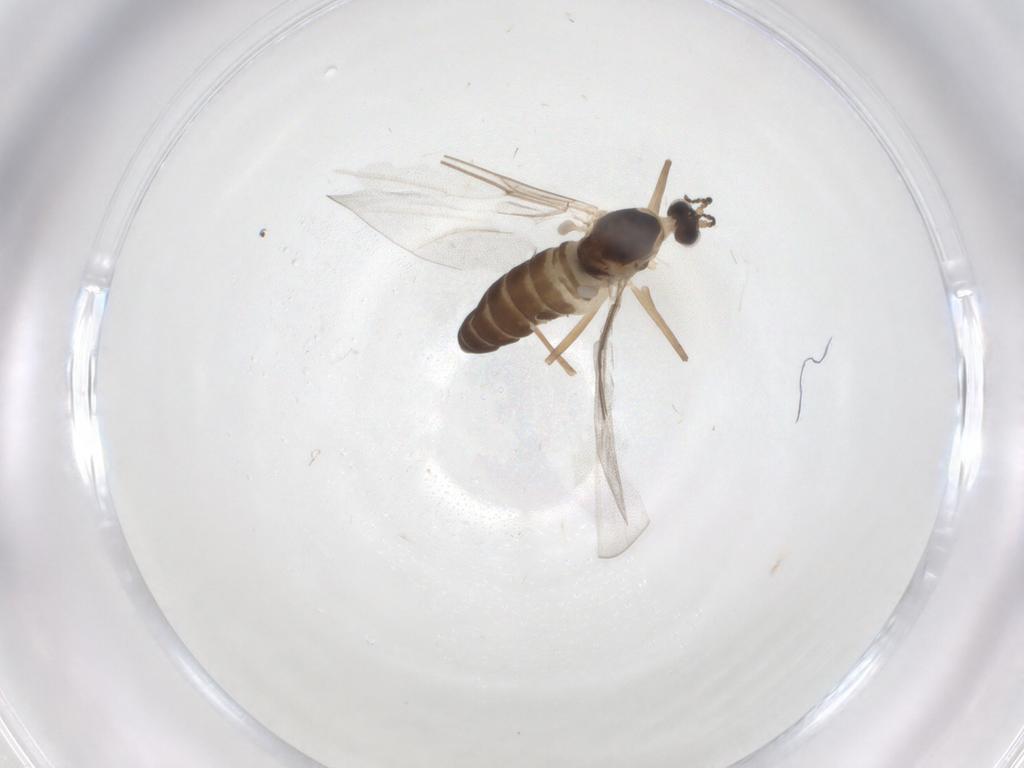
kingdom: Animalia
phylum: Arthropoda
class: Insecta
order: Diptera
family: Cecidomyiidae
